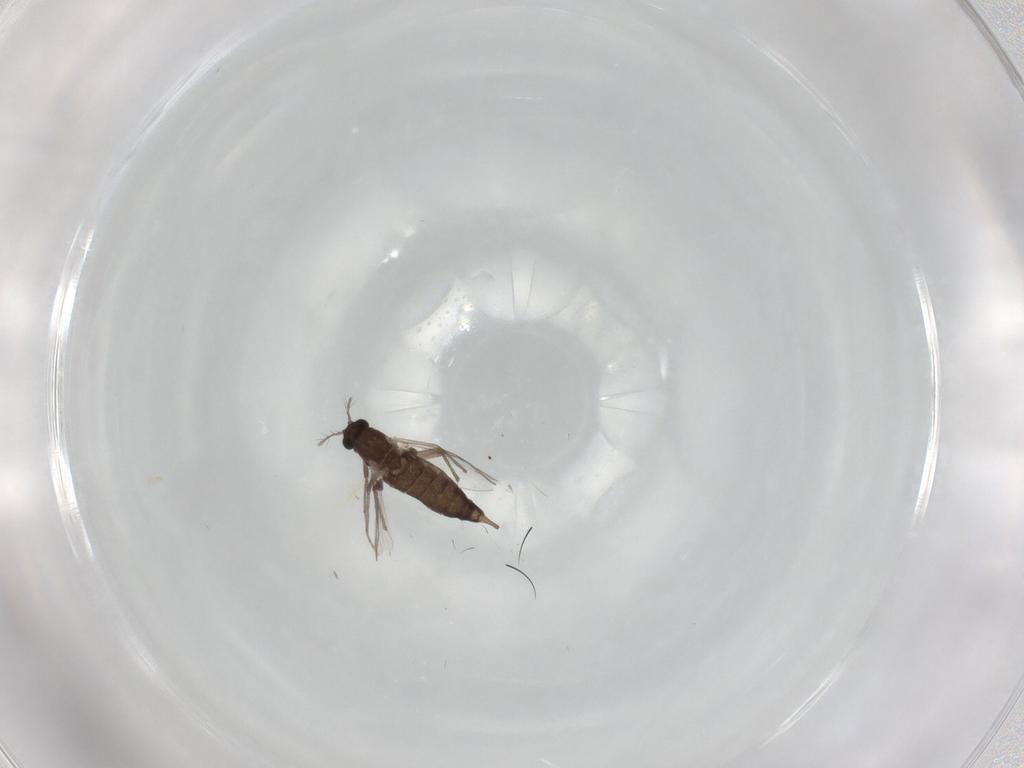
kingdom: Animalia
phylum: Arthropoda
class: Insecta
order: Diptera
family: Chironomidae
